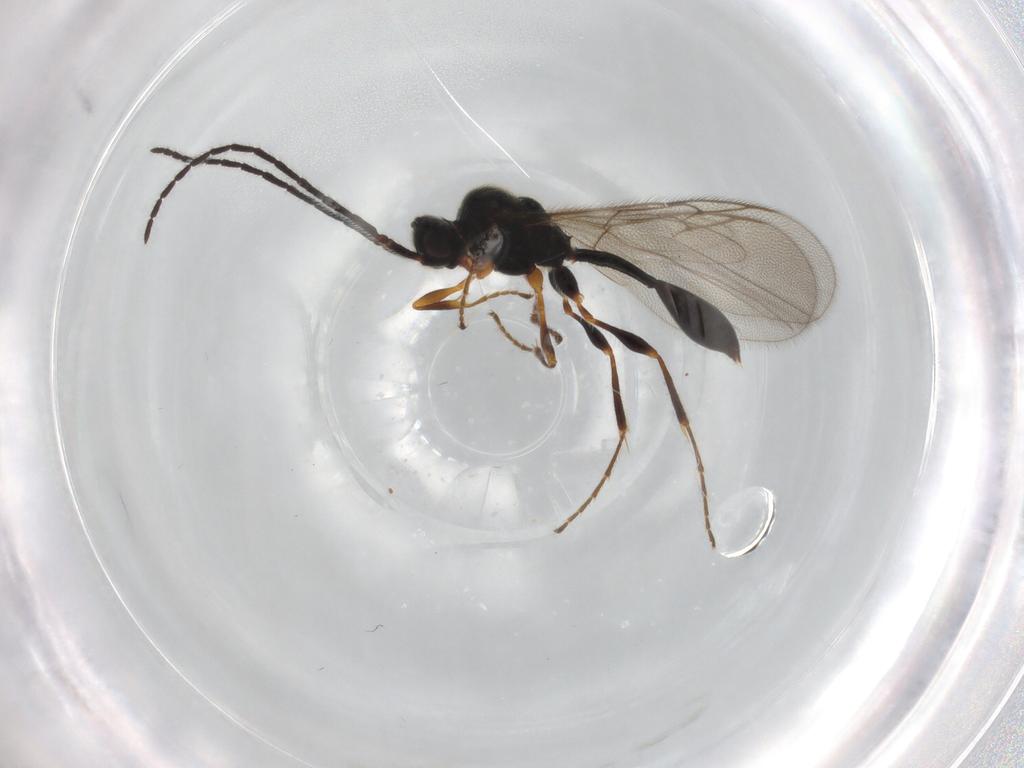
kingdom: Animalia
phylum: Arthropoda
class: Insecta
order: Hymenoptera
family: Diapriidae
